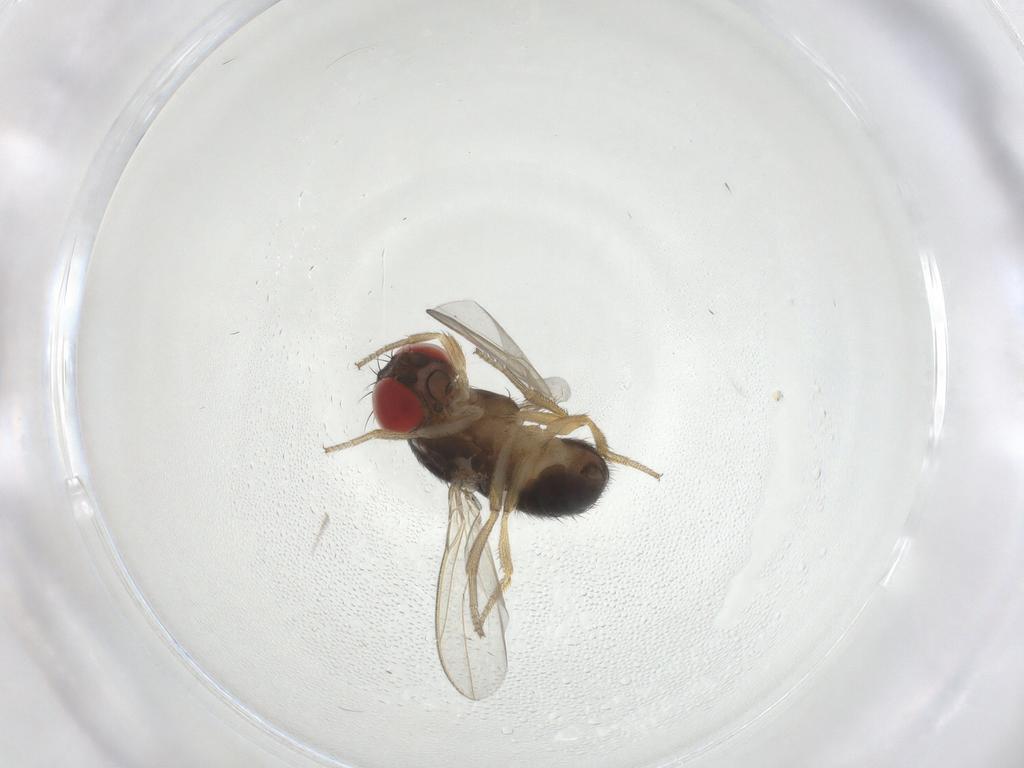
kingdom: Animalia
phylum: Arthropoda
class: Insecta
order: Diptera
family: Drosophilidae
